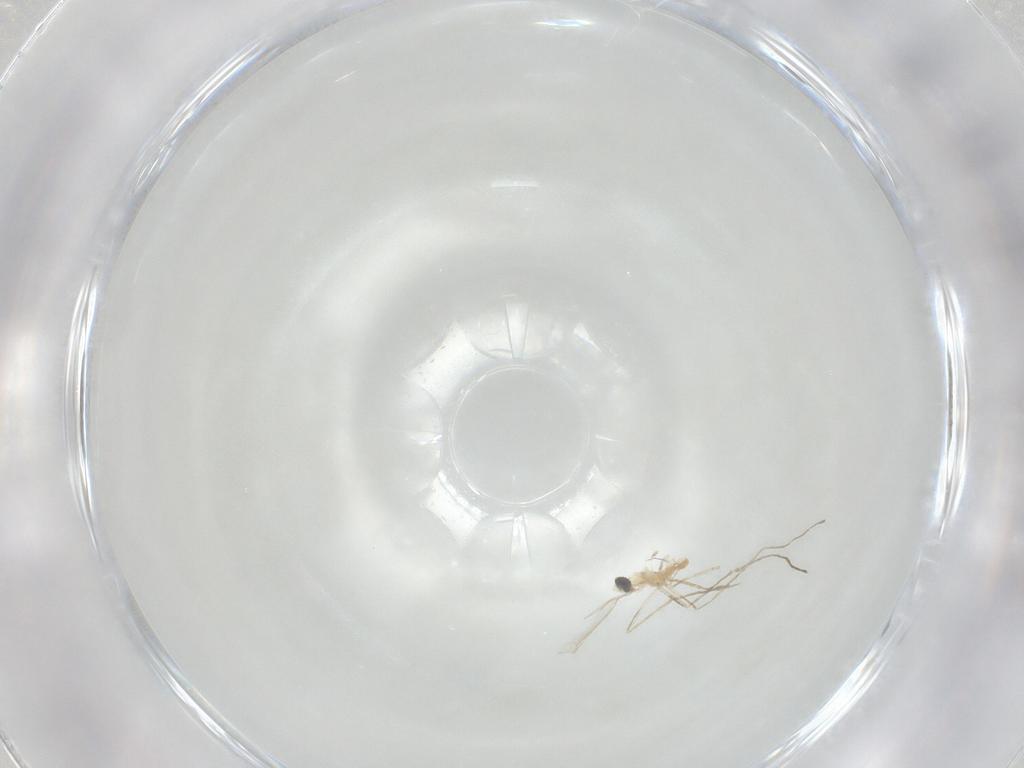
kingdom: Animalia
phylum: Arthropoda
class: Insecta
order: Diptera
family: Cecidomyiidae
